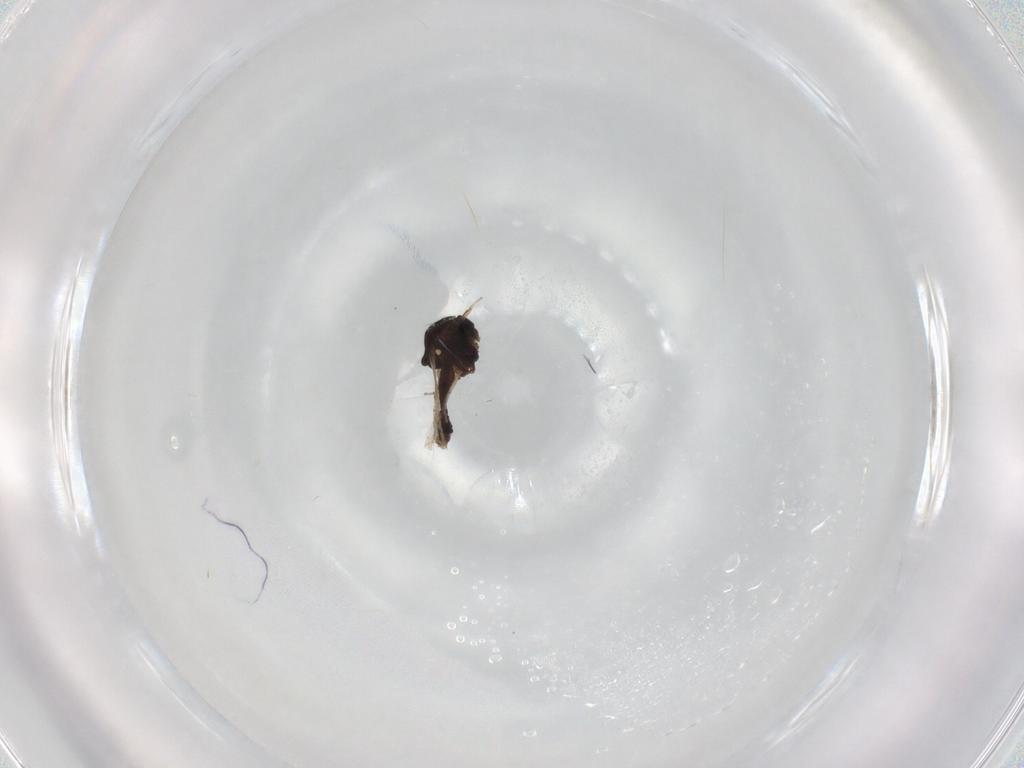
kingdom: Animalia
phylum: Arthropoda
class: Insecta
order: Diptera
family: Ceratopogonidae
